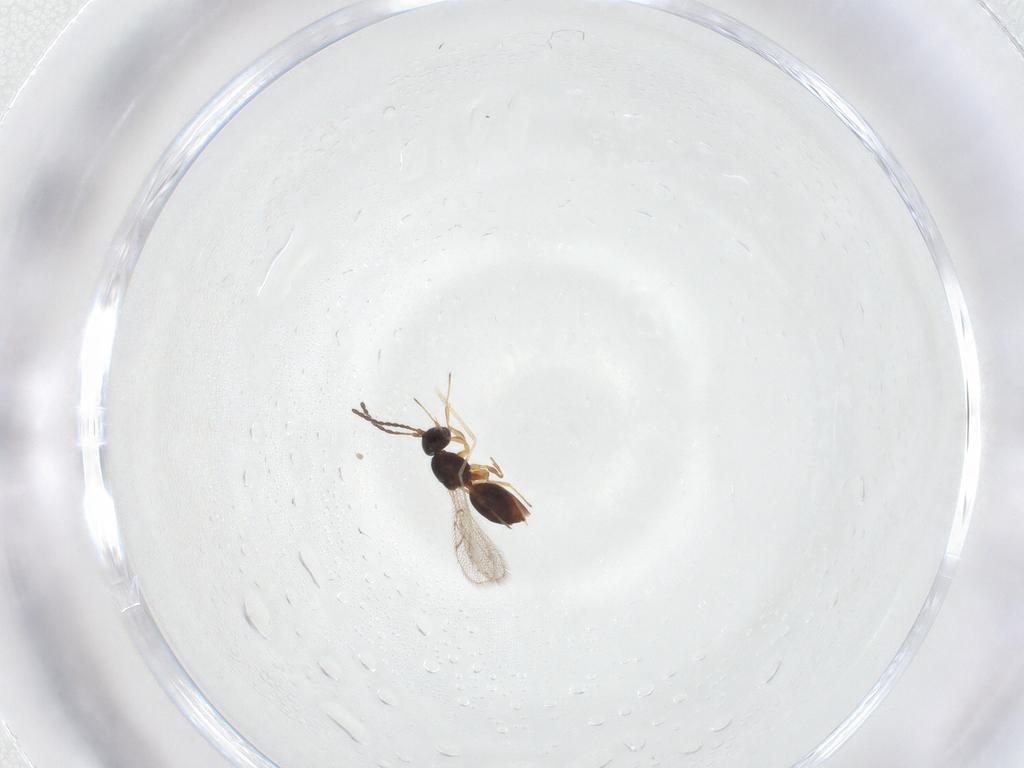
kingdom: Animalia
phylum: Arthropoda
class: Insecta
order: Hymenoptera
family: Figitidae
